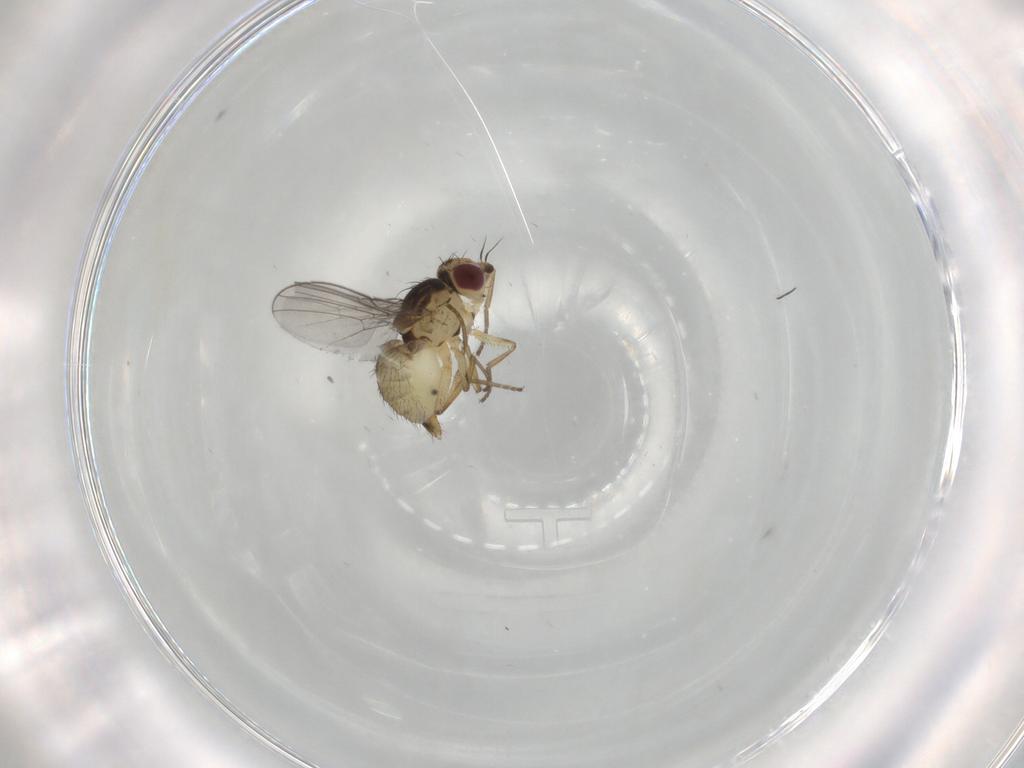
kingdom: Animalia
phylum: Arthropoda
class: Insecta
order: Diptera
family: Agromyzidae
